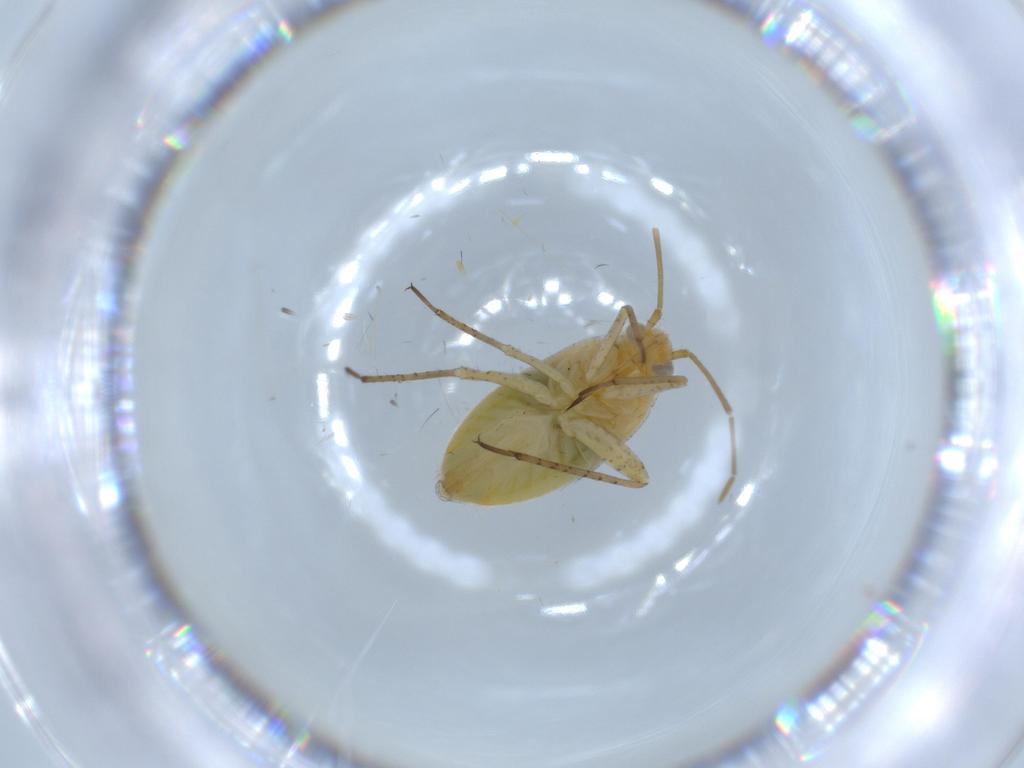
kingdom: Animalia
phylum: Arthropoda
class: Insecta
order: Hemiptera
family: Miridae
